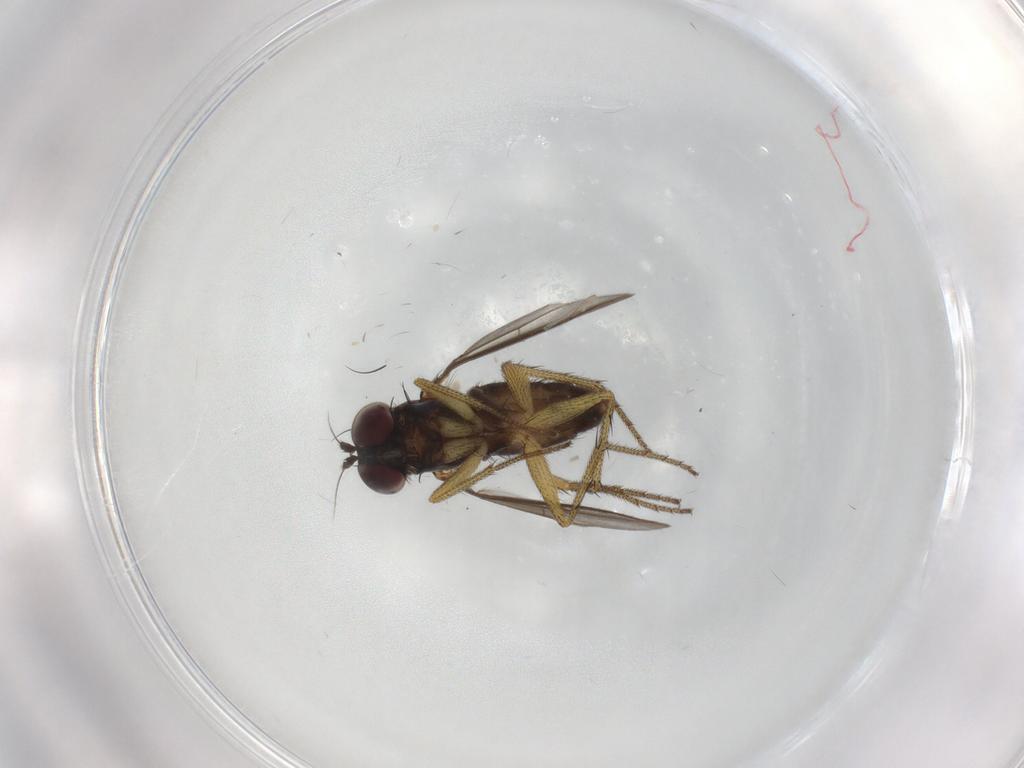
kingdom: Animalia
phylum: Arthropoda
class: Insecta
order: Diptera
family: Chironomidae
